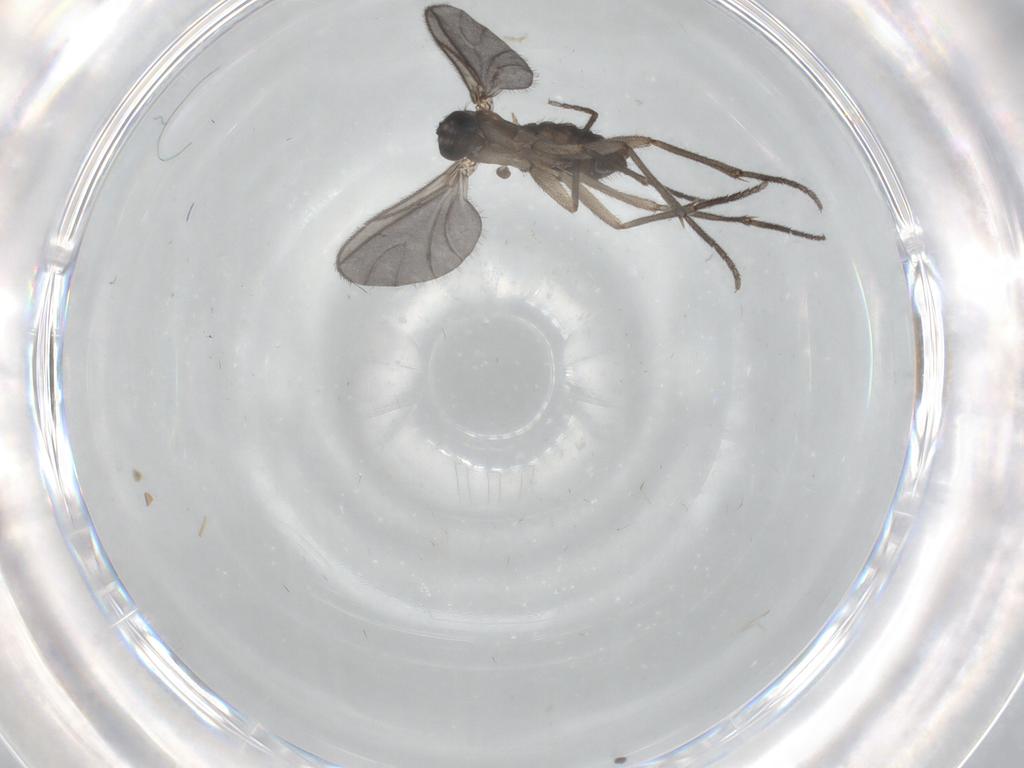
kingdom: Animalia
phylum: Arthropoda
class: Insecta
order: Diptera
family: Sciaridae
